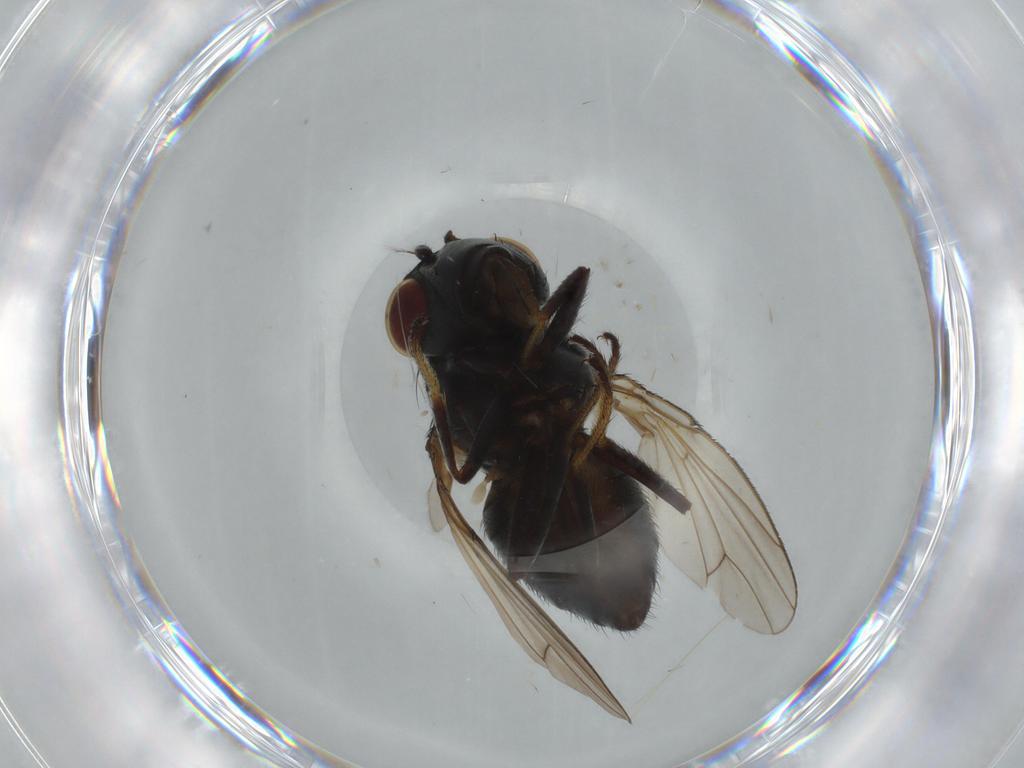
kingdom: Animalia
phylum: Arthropoda
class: Insecta
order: Diptera
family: Ephydridae
